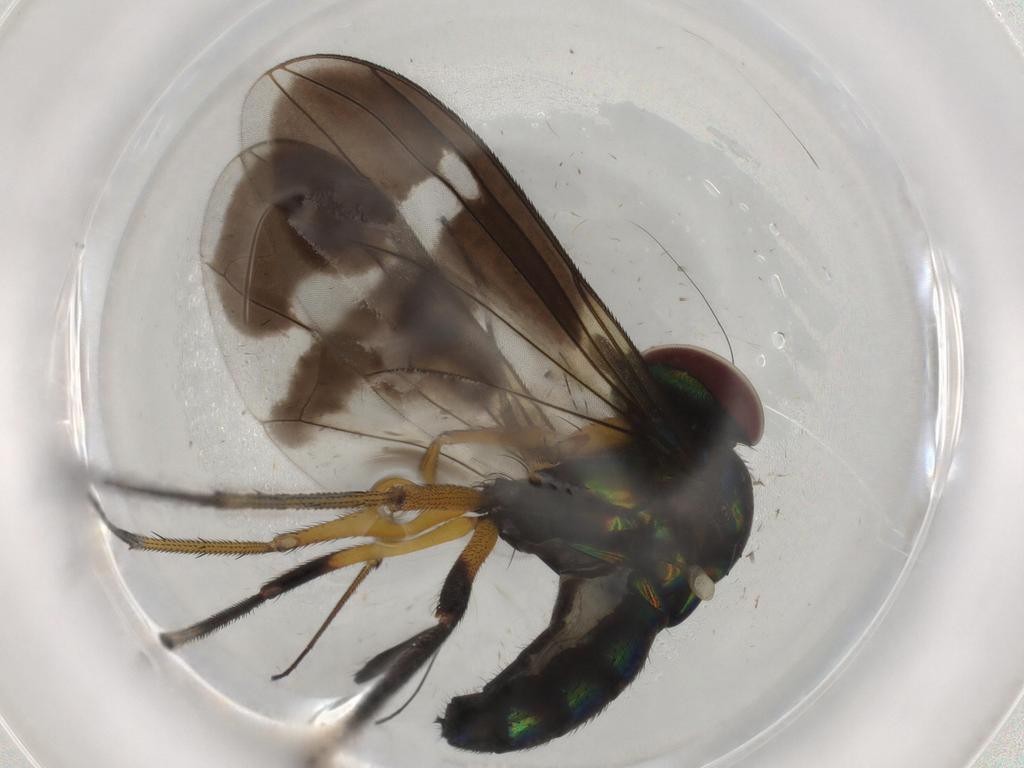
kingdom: Animalia
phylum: Arthropoda
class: Insecta
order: Diptera
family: Dolichopodidae
